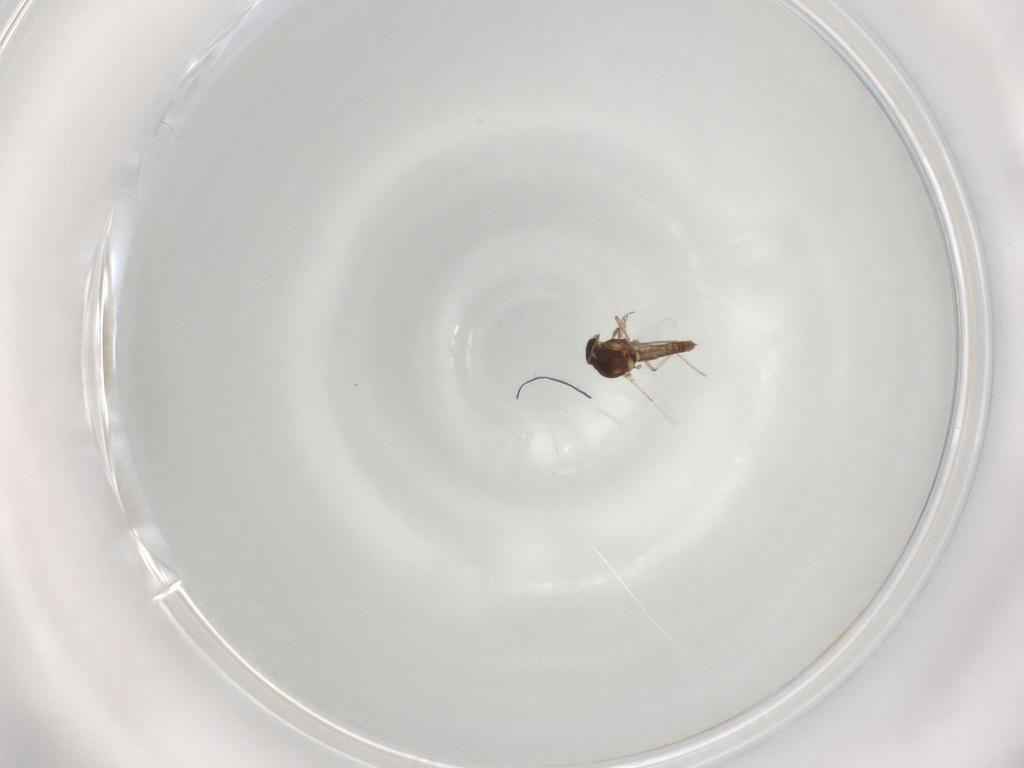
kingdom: Animalia
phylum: Arthropoda
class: Insecta
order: Diptera
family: Ceratopogonidae
